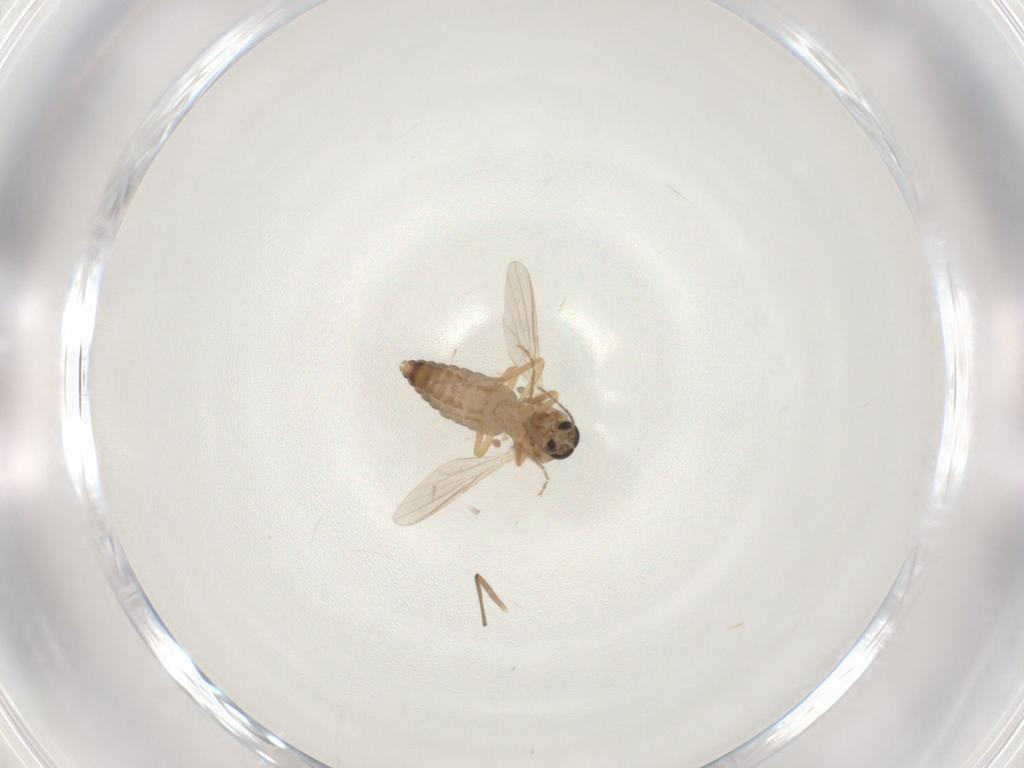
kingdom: Animalia
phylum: Arthropoda
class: Insecta
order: Diptera
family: Ceratopogonidae
